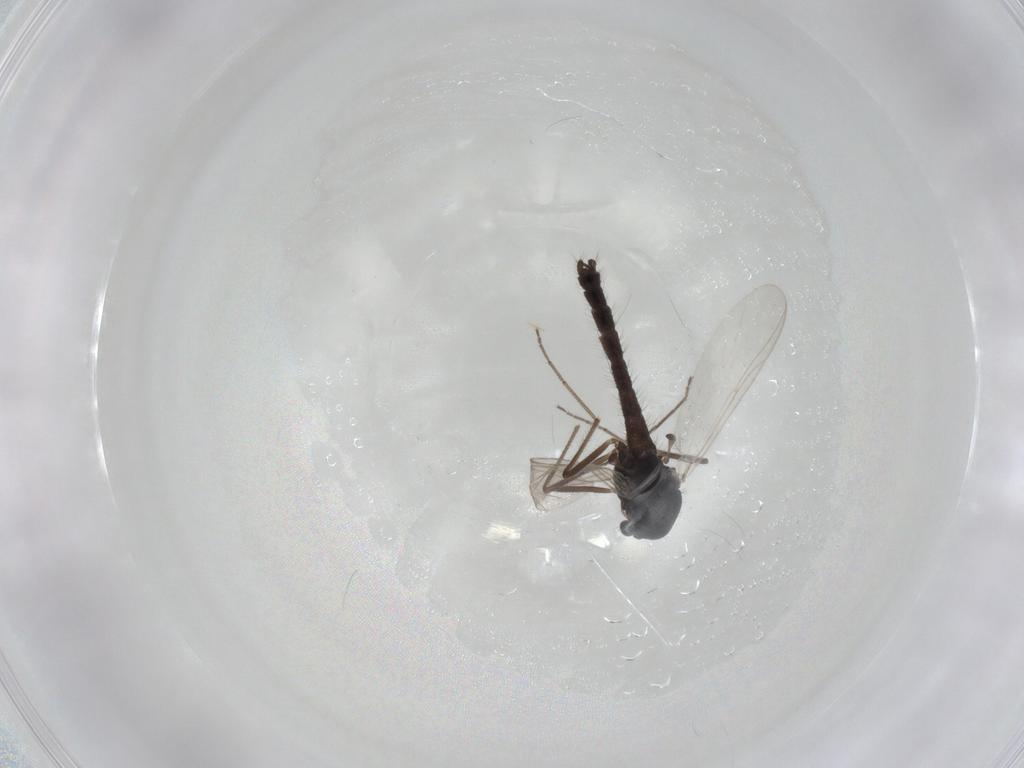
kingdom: Animalia
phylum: Arthropoda
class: Insecta
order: Diptera
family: Chironomidae
